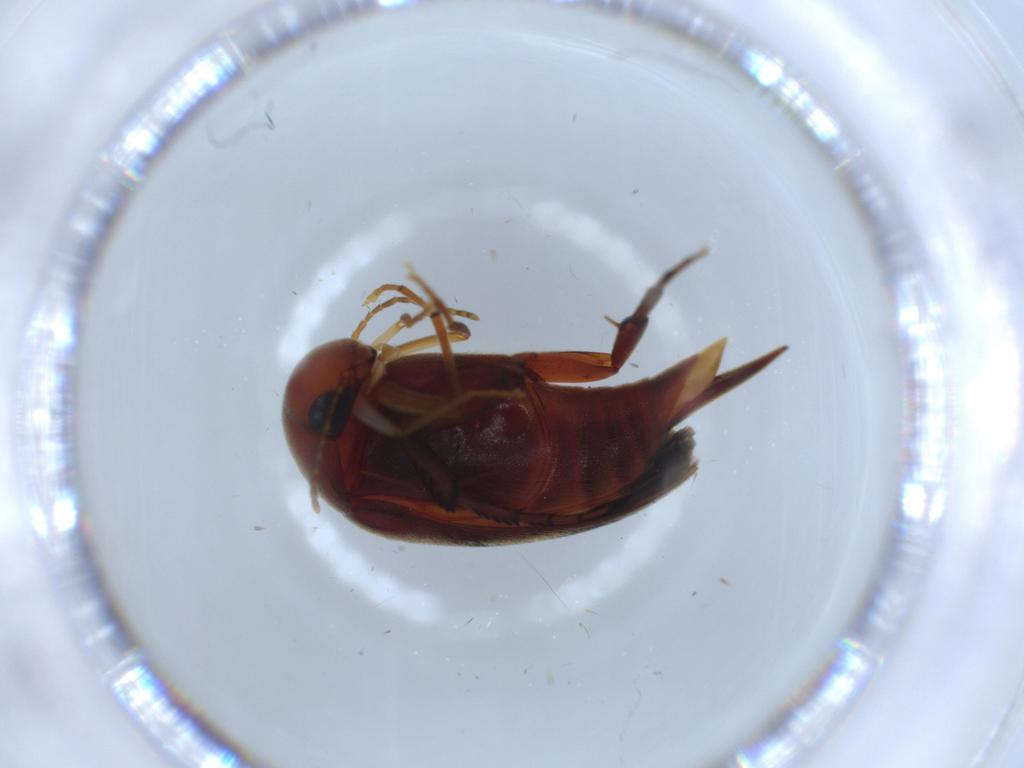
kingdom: Animalia
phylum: Arthropoda
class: Insecta
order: Coleoptera
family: Mordellidae
